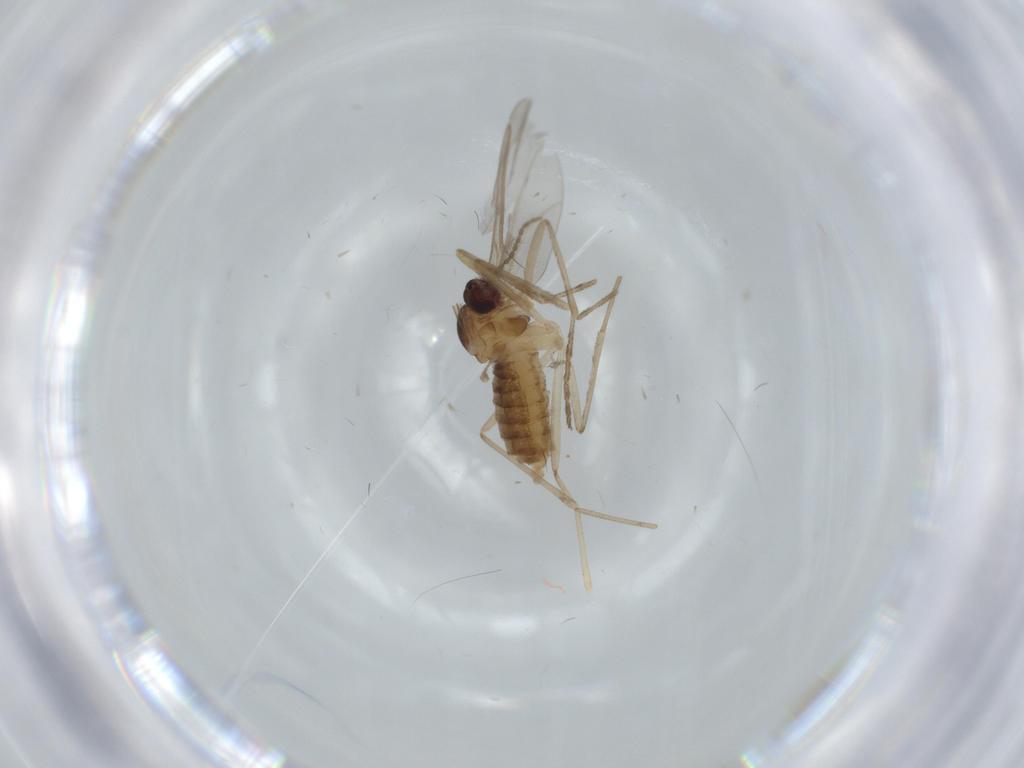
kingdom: Animalia
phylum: Arthropoda
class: Insecta
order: Diptera
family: Cecidomyiidae
